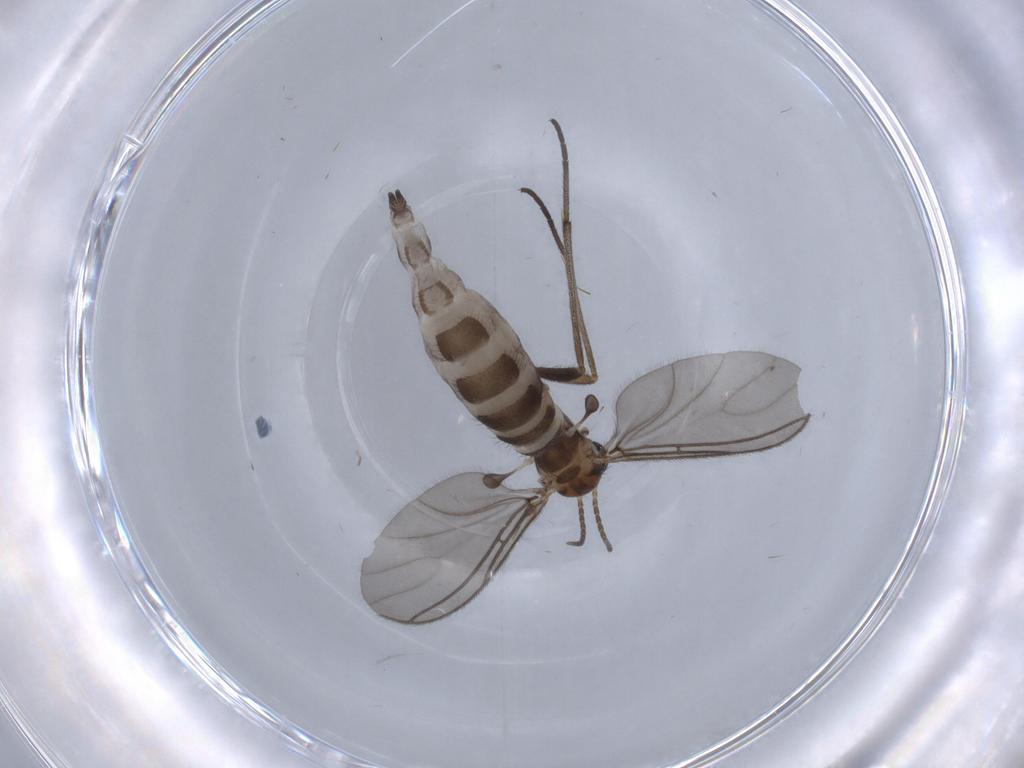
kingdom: Animalia
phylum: Arthropoda
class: Insecta
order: Diptera
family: Sciaridae
